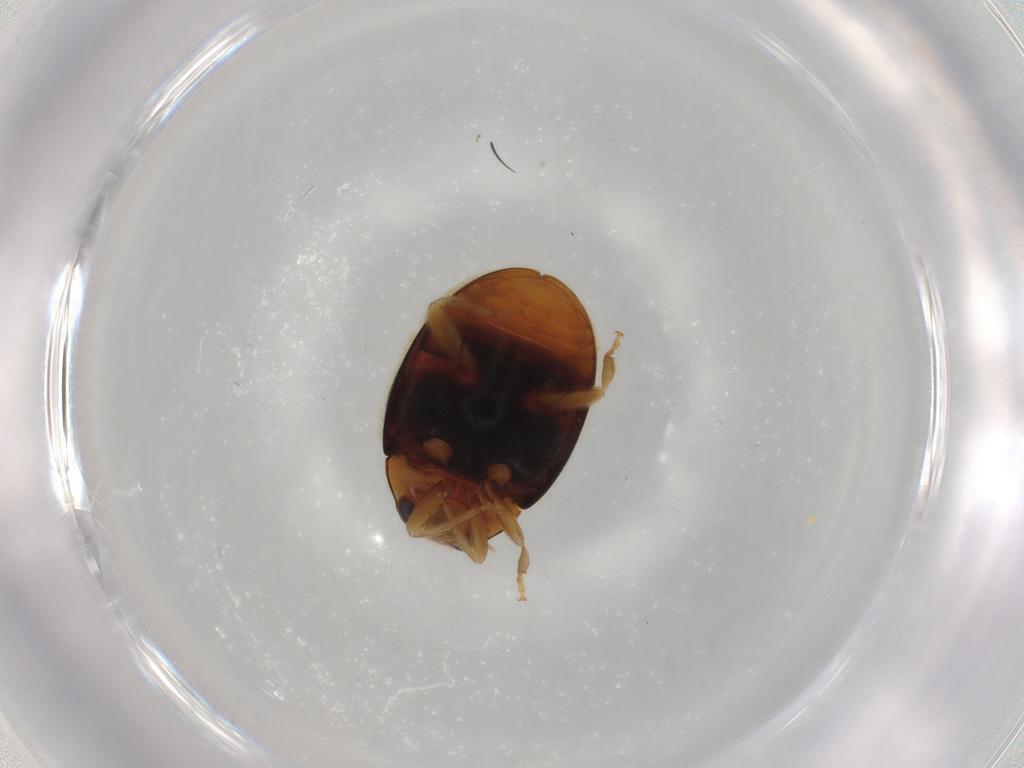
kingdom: Animalia
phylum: Arthropoda
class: Insecta
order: Coleoptera
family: Coccinellidae
